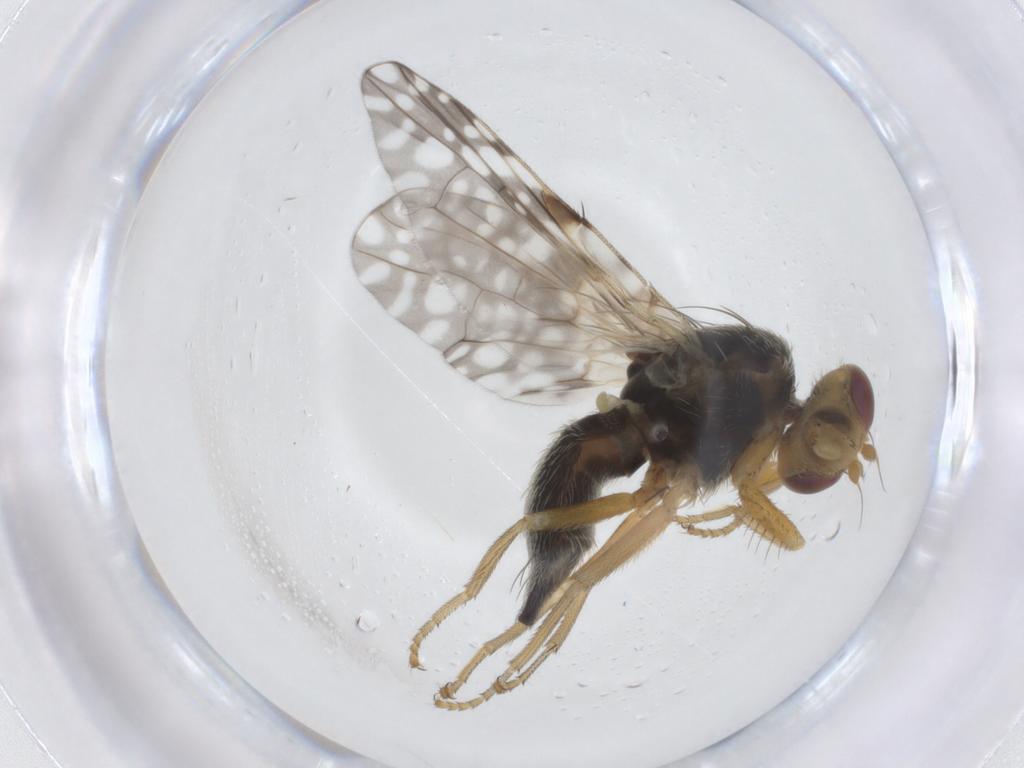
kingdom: Animalia
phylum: Arthropoda
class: Insecta
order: Diptera
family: Tephritidae
